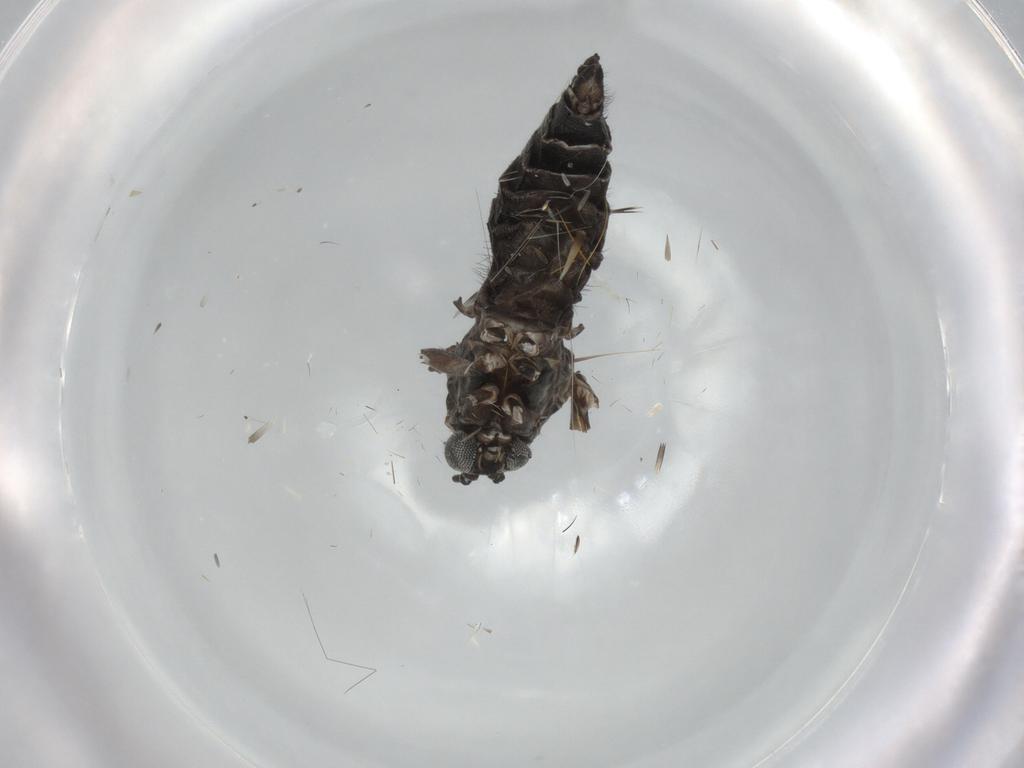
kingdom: Animalia
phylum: Arthropoda
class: Insecta
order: Diptera
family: Sciaridae
